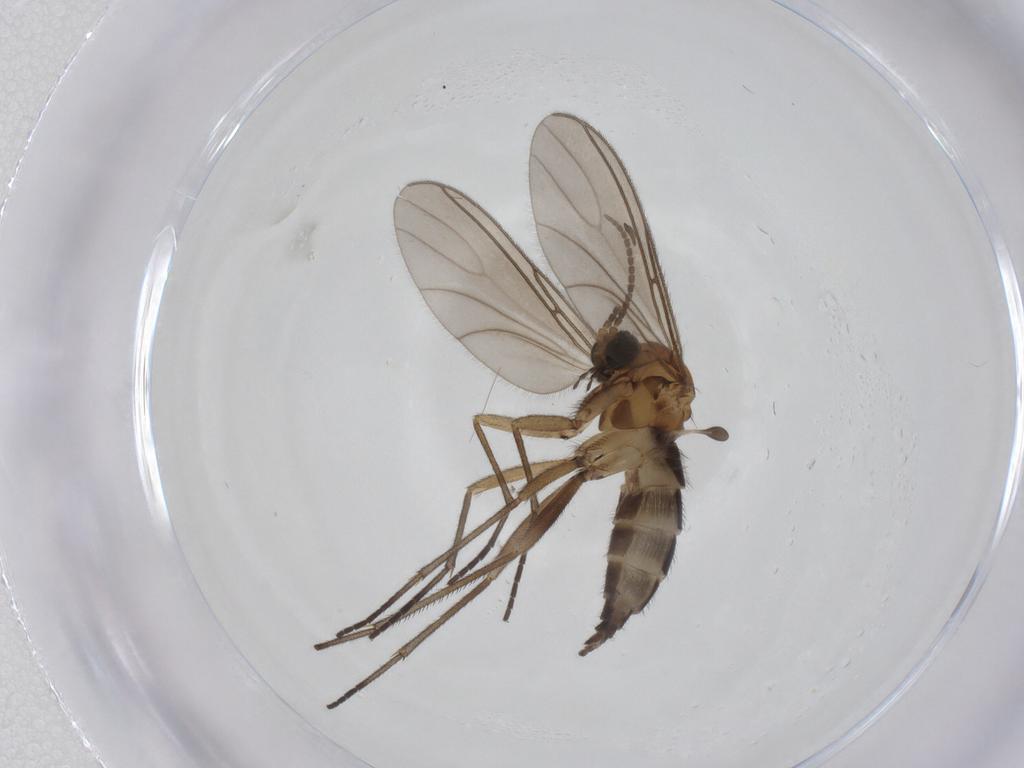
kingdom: Animalia
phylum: Arthropoda
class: Insecta
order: Diptera
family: Sciaridae
